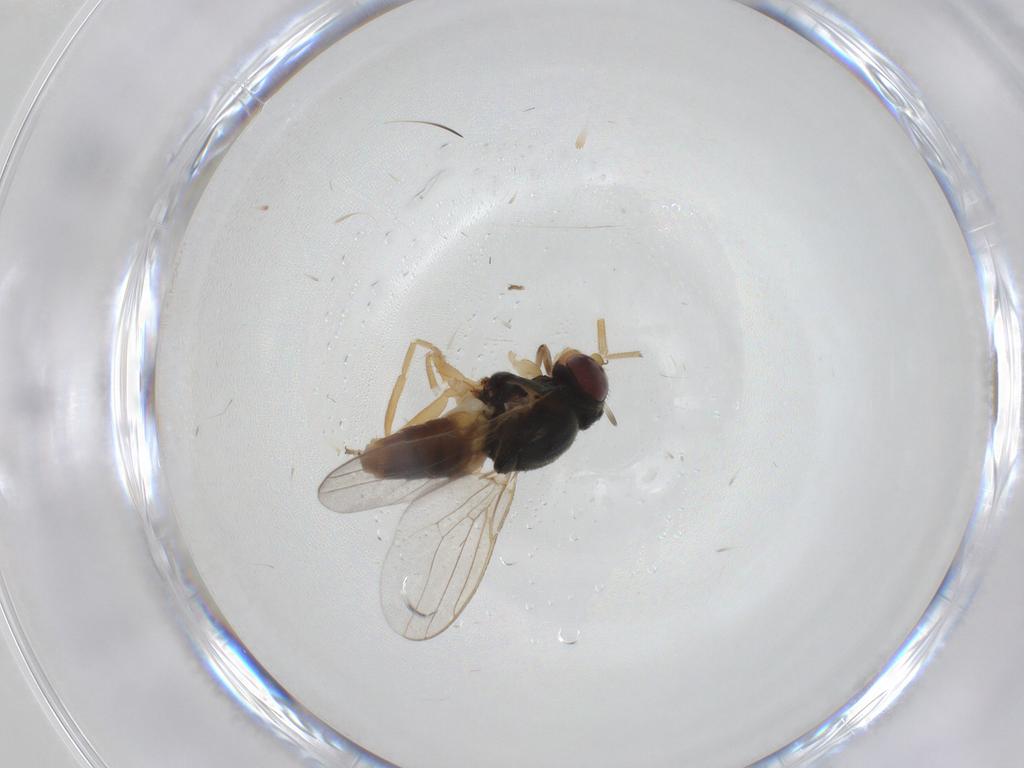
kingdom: Animalia
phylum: Arthropoda
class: Insecta
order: Diptera
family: Chloropidae
